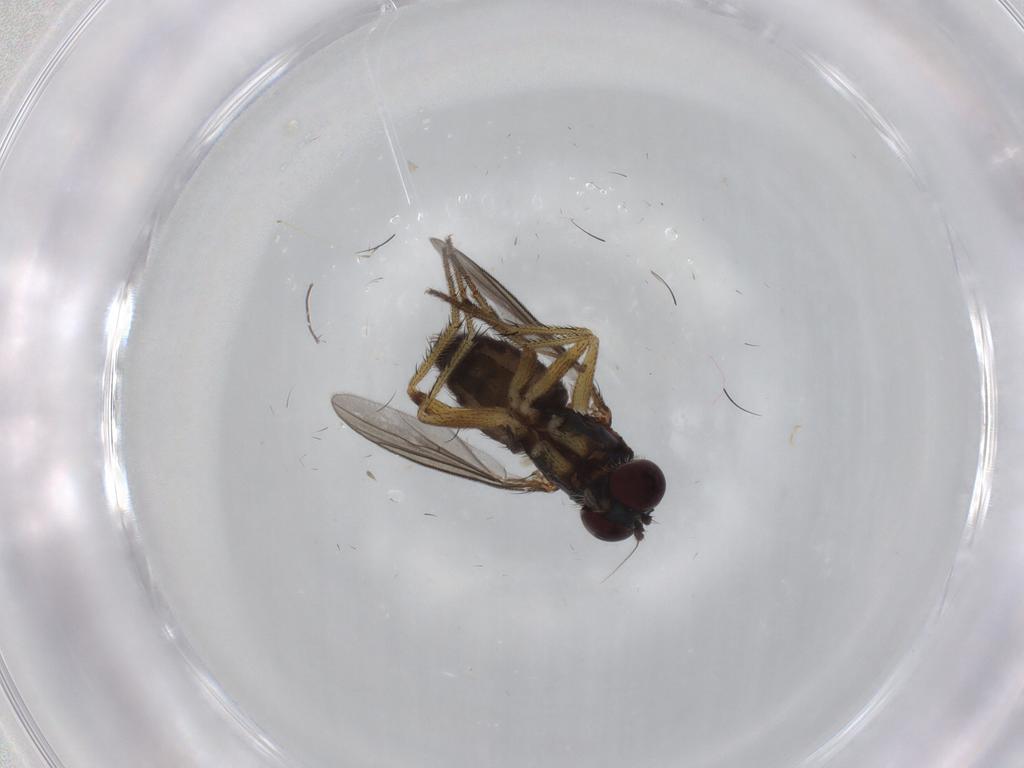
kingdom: Animalia
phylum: Arthropoda
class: Insecta
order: Diptera
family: Dolichopodidae
